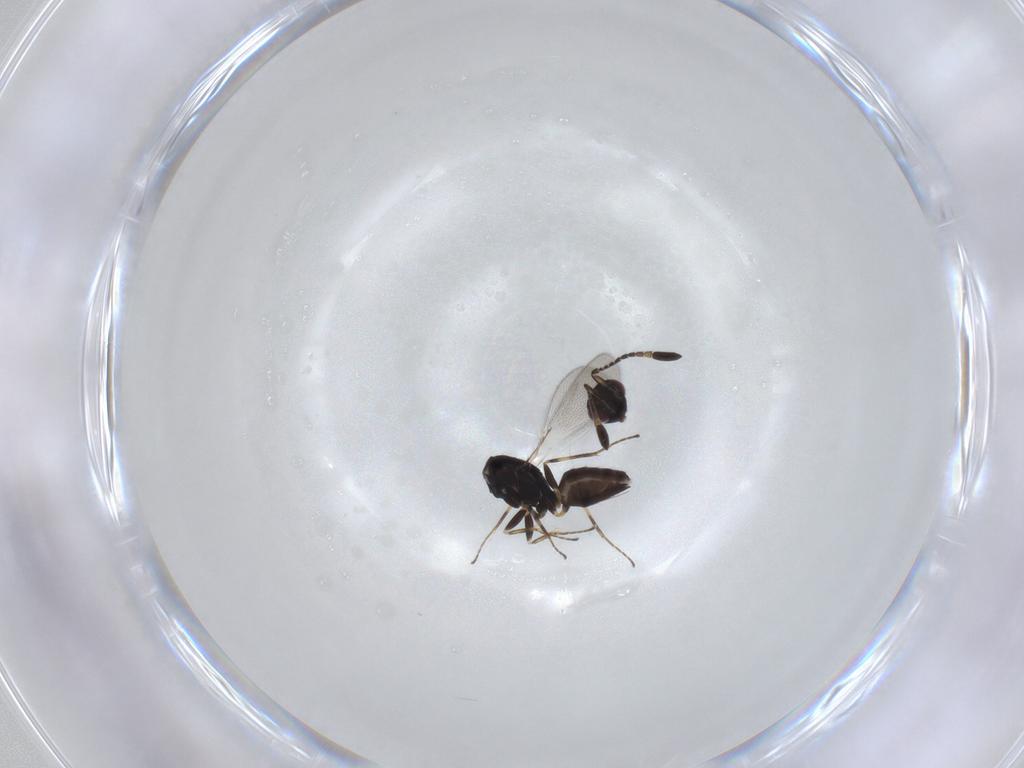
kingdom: Animalia
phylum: Arthropoda
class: Insecta
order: Hymenoptera
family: Mymaridae
